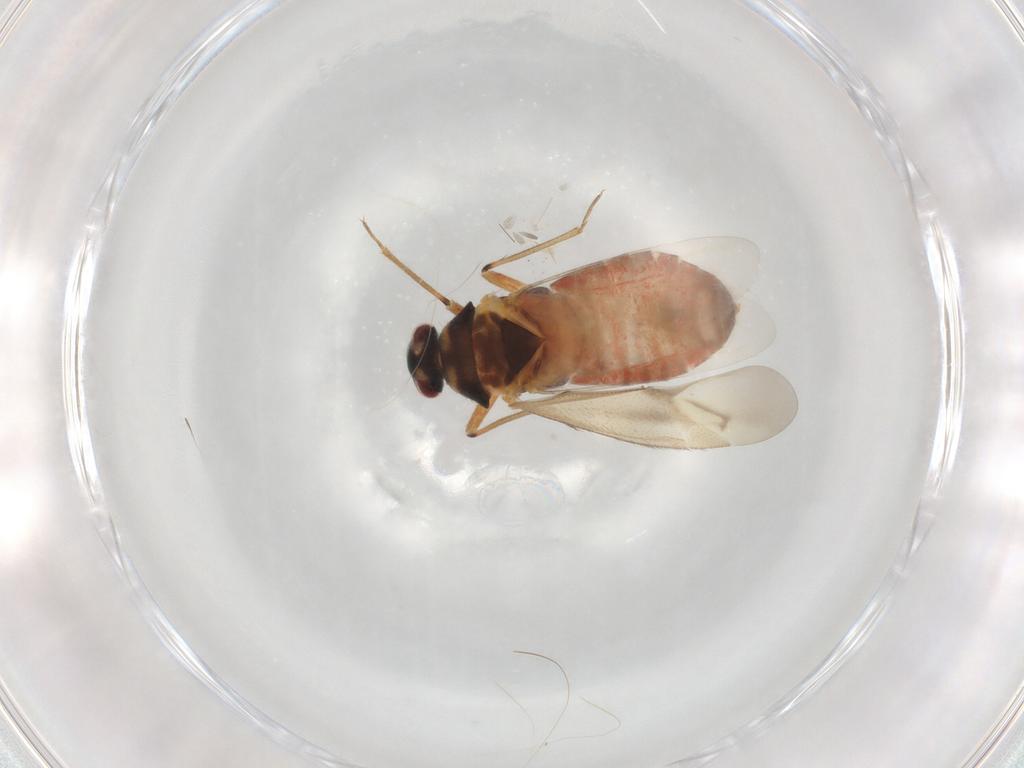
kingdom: Animalia
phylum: Arthropoda
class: Insecta
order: Hemiptera
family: Miridae
